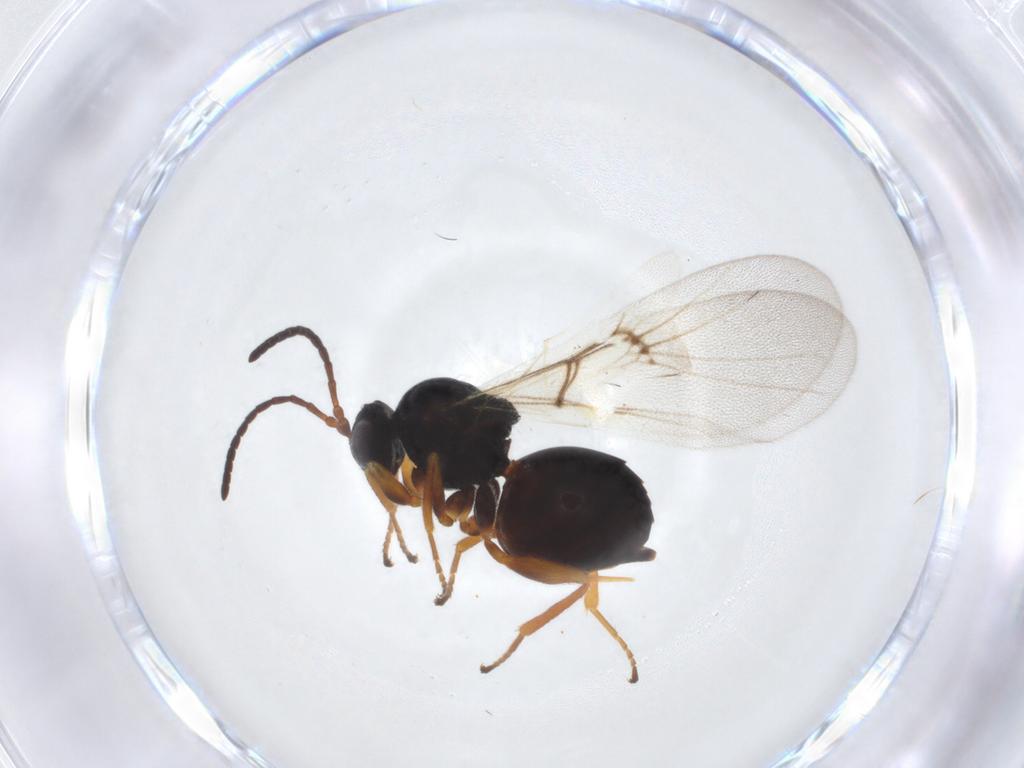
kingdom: Animalia
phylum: Arthropoda
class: Insecta
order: Hymenoptera
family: Cynipidae
